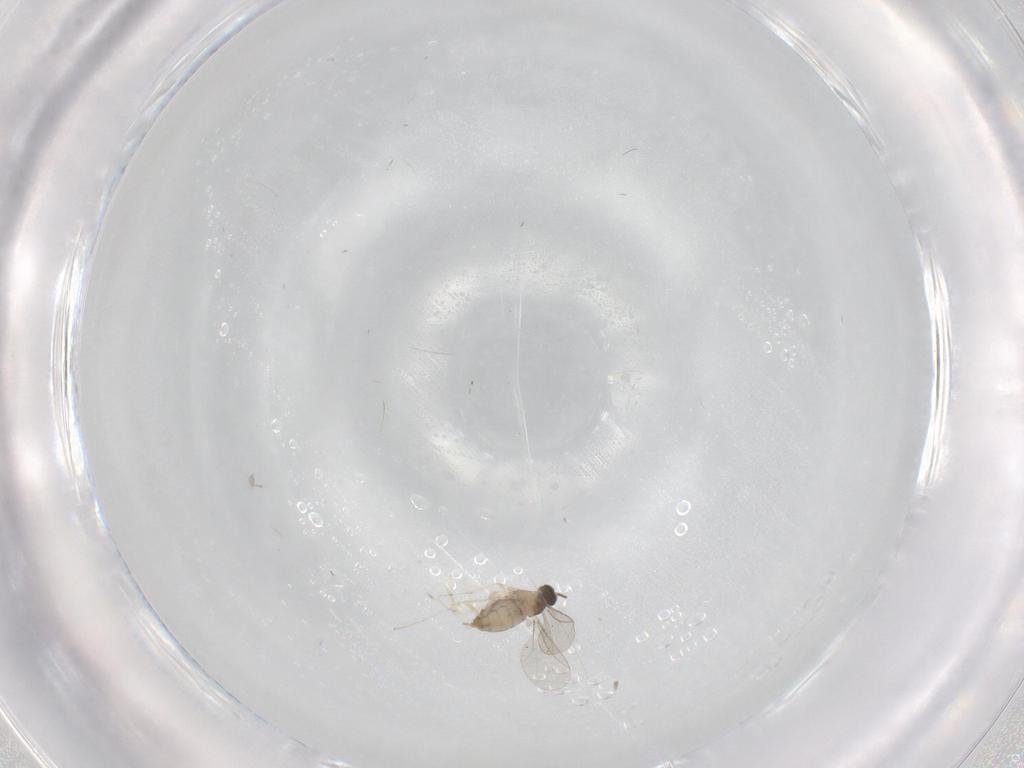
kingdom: Animalia
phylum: Arthropoda
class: Insecta
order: Diptera
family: Cecidomyiidae
